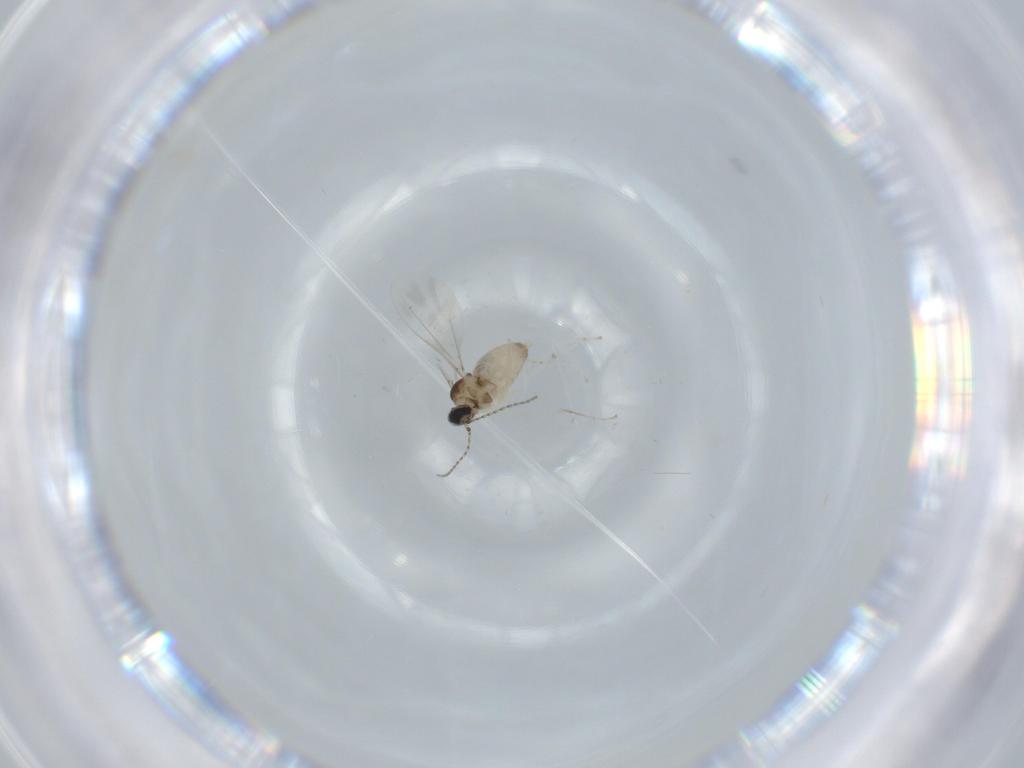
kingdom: Animalia
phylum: Arthropoda
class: Insecta
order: Diptera
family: Cecidomyiidae
